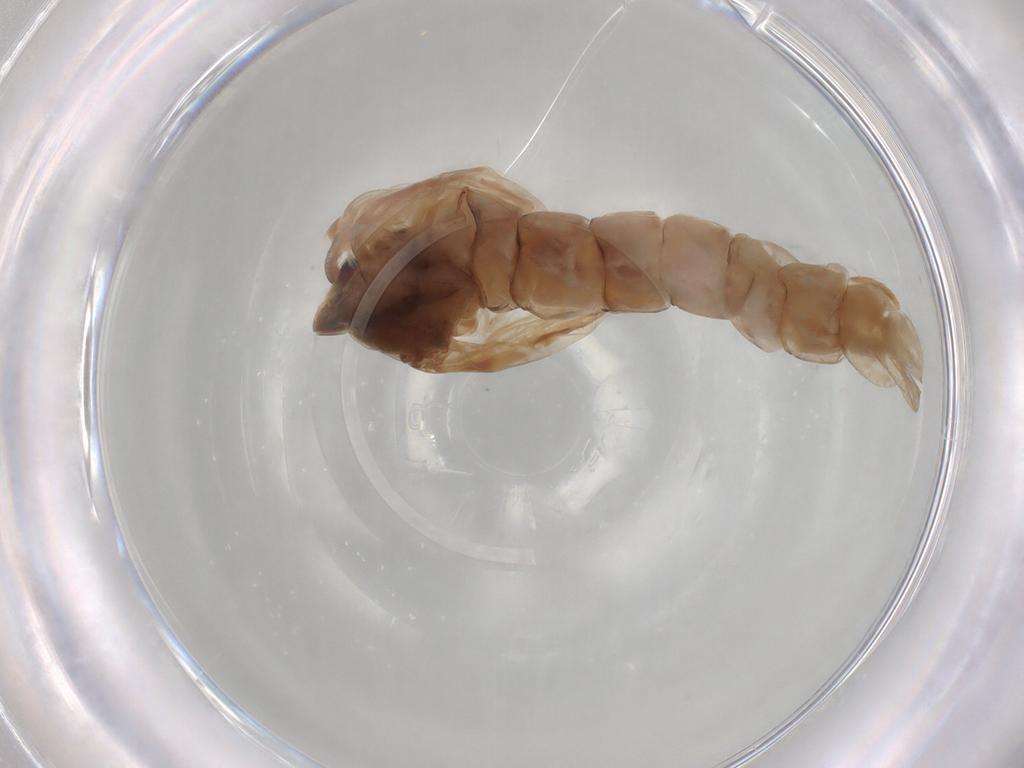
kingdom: Animalia
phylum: Arthropoda
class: Insecta
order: Diptera
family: Chironomidae
